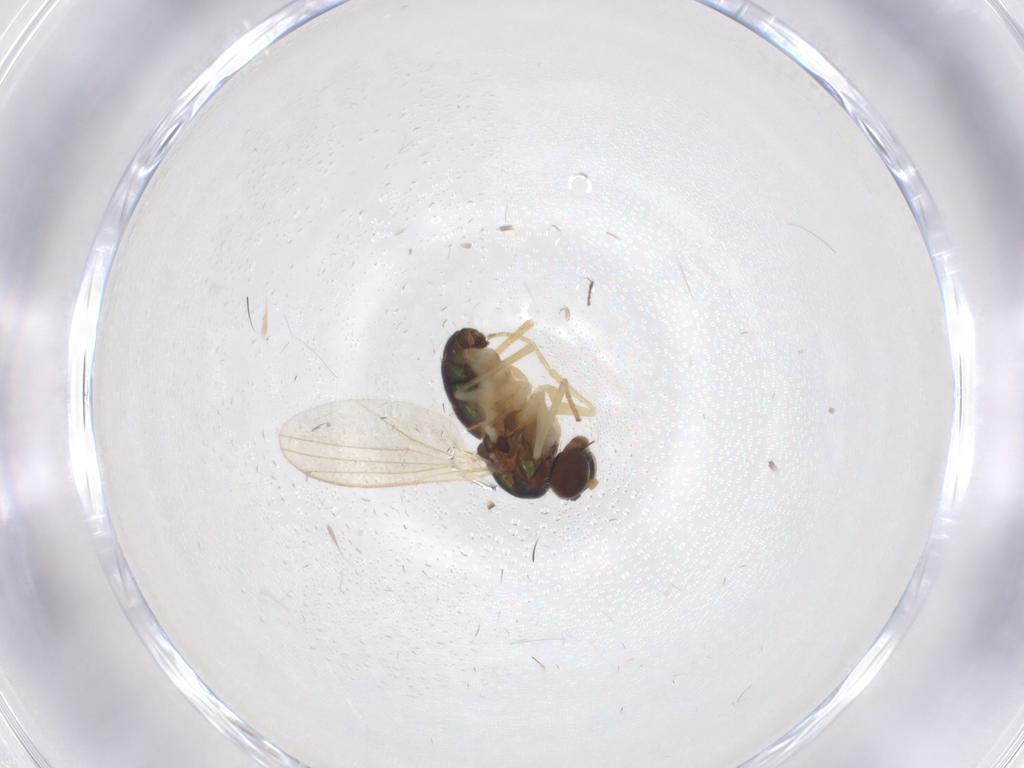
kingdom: Animalia
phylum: Arthropoda
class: Insecta
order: Diptera
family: Dolichopodidae
